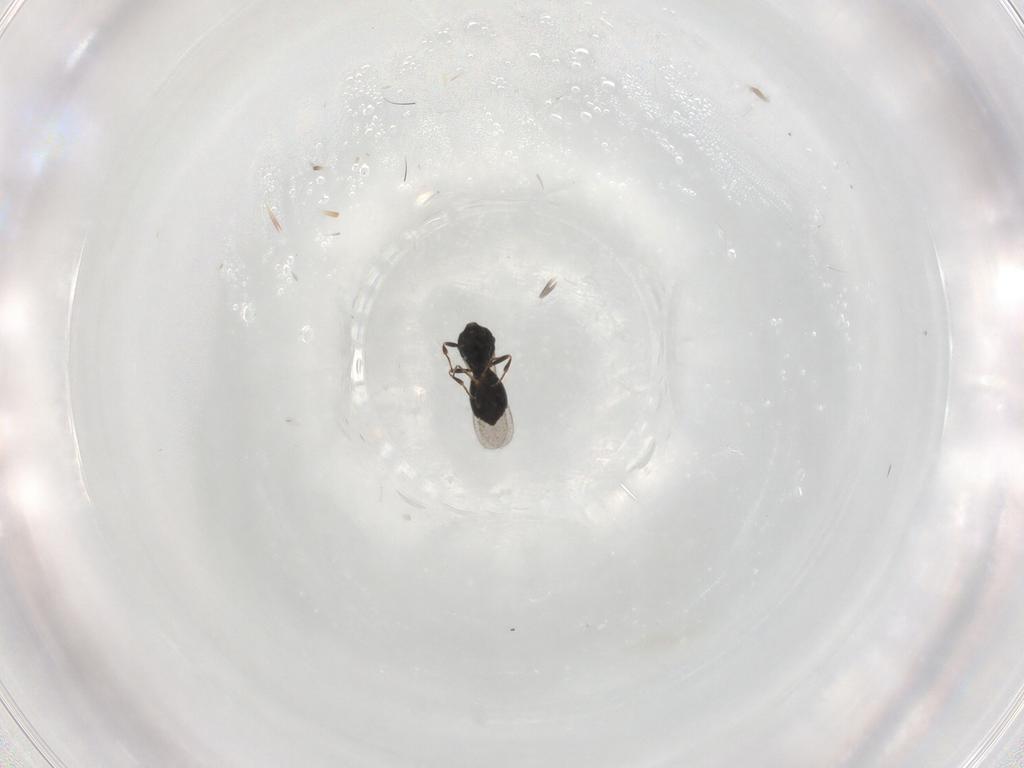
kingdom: Animalia
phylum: Arthropoda
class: Insecta
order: Hymenoptera
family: Scelionidae
